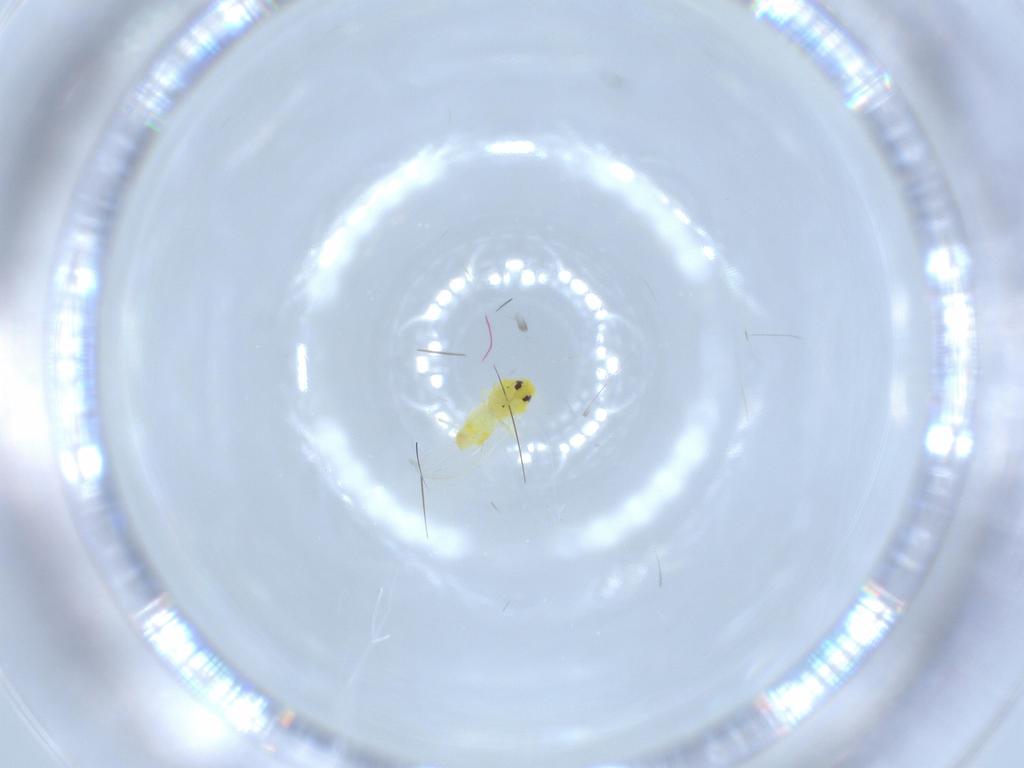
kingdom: Animalia
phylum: Arthropoda
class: Insecta
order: Hemiptera
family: Aleyrodidae
